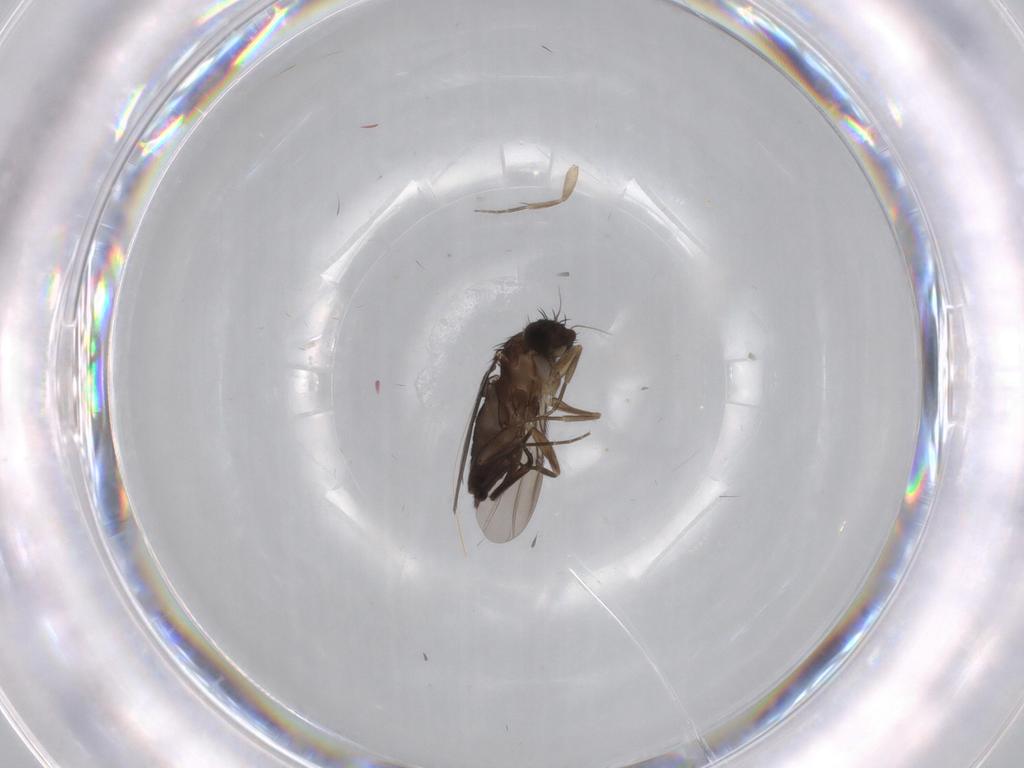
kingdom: Animalia
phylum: Arthropoda
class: Insecta
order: Diptera
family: Phoridae
